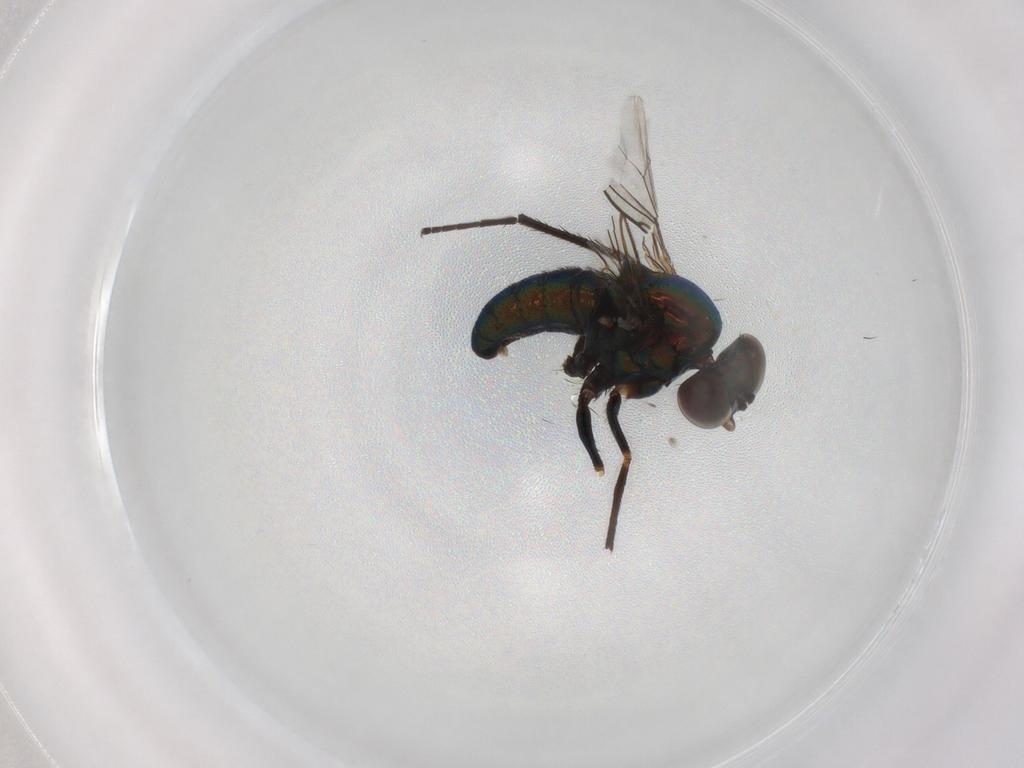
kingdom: Animalia
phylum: Arthropoda
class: Insecta
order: Diptera
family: Dolichopodidae
